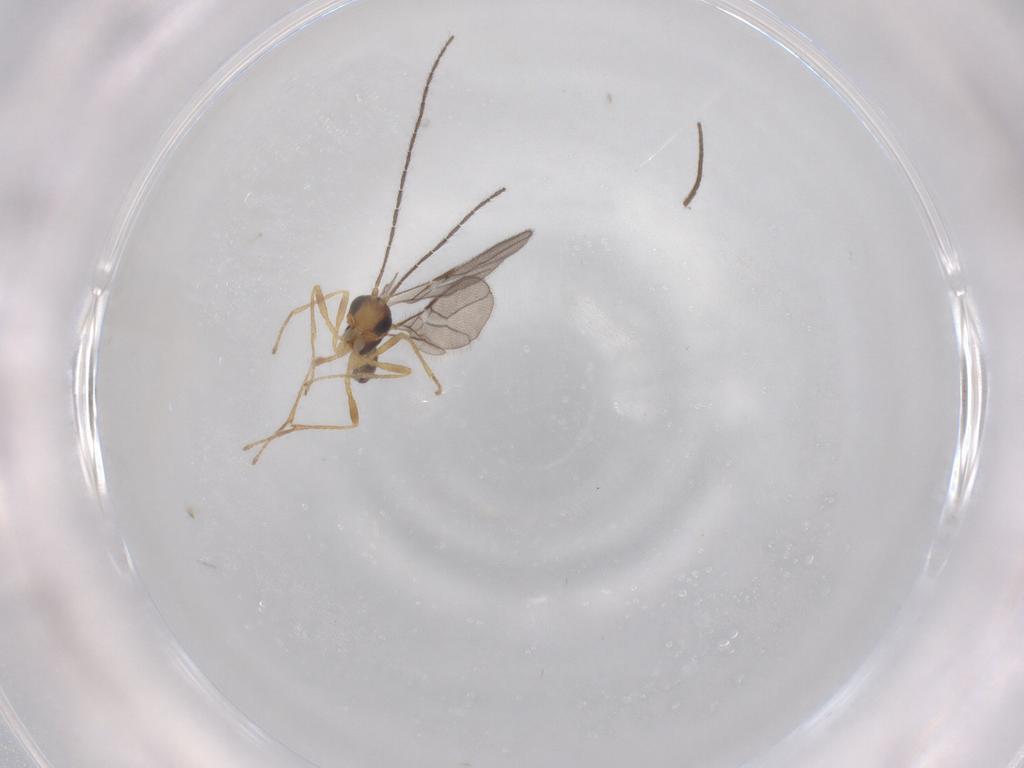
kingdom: Animalia
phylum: Arthropoda
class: Insecta
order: Hymenoptera
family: Braconidae
